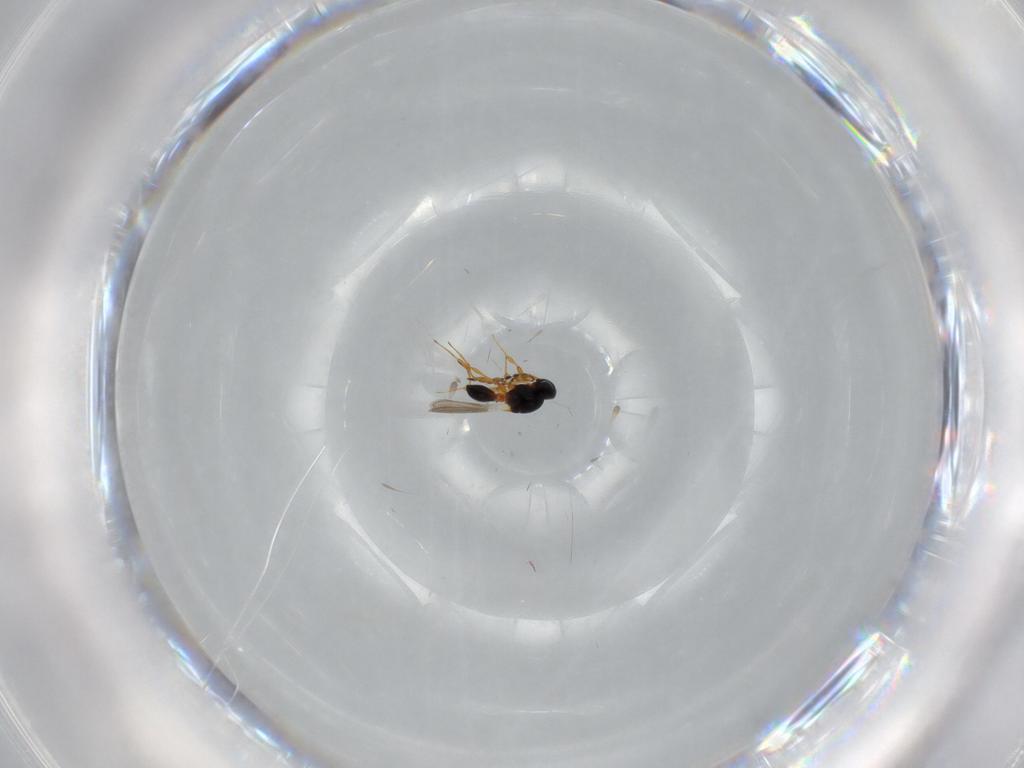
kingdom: Animalia
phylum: Arthropoda
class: Insecta
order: Hymenoptera
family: Platygastridae
